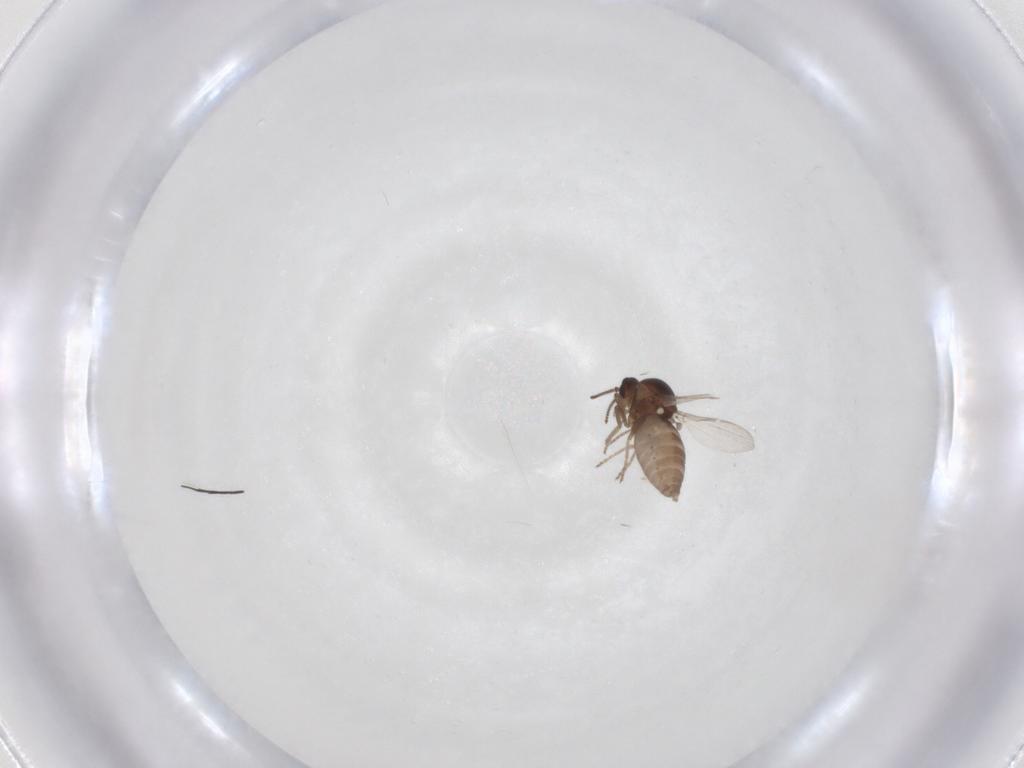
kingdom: Animalia
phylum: Arthropoda
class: Insecta
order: Diptera
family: Ceratopogonidae
